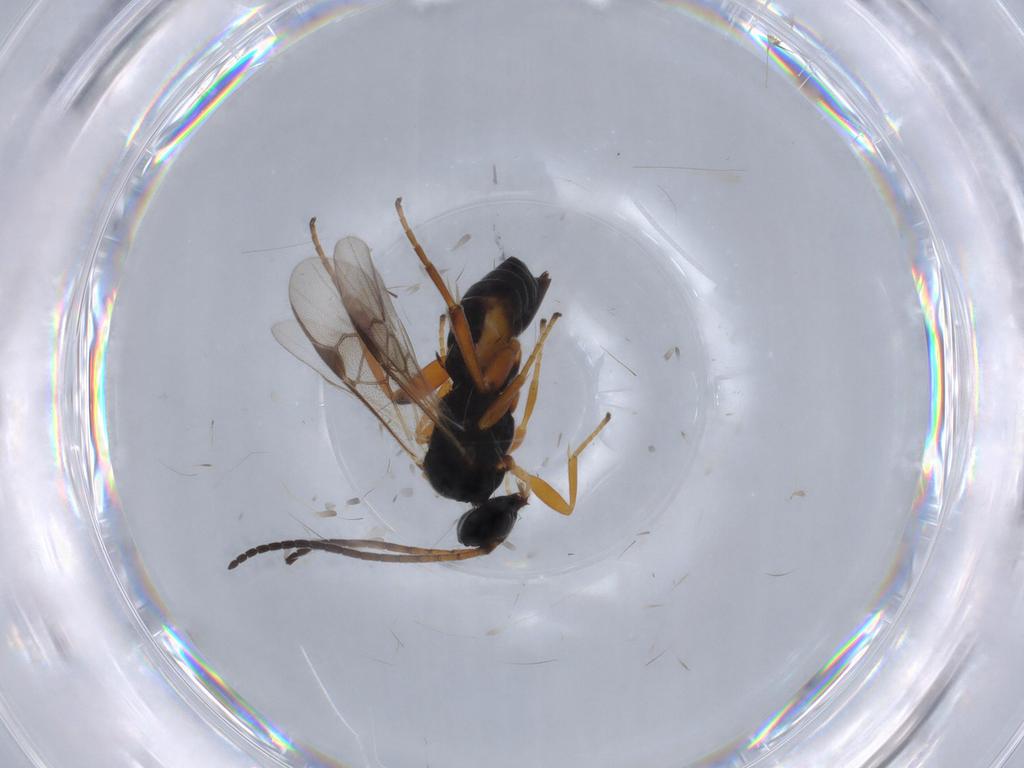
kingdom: Animalia
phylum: Arthropoda
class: Insecta
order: Hymenoptera
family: Braconidae
